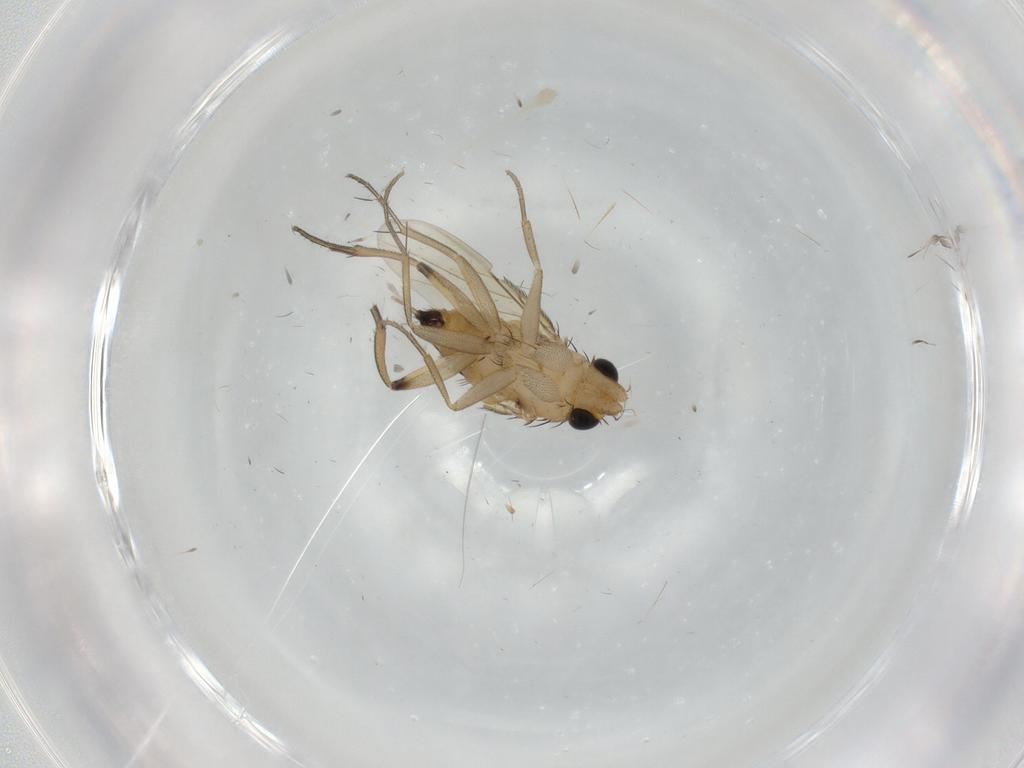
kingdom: Animalia
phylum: Arthropoda
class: Insecta
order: Diptera
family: Phoridae
